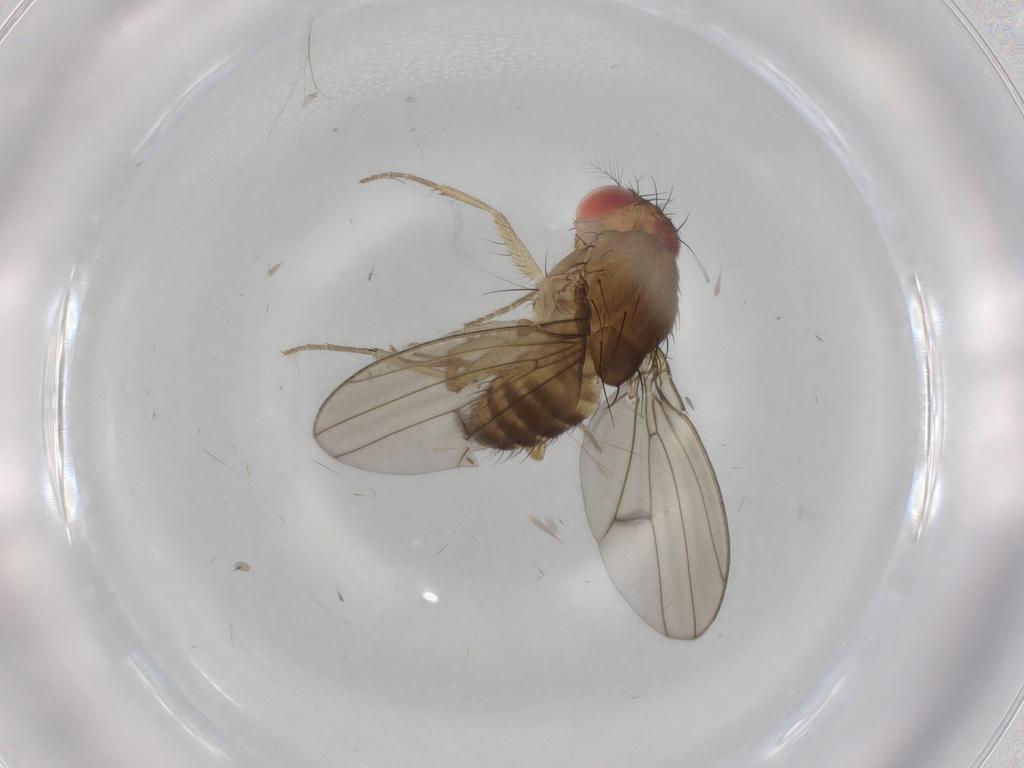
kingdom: Animalia
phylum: Arthropoda
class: Insecta
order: Diptera
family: Drosophilidae
